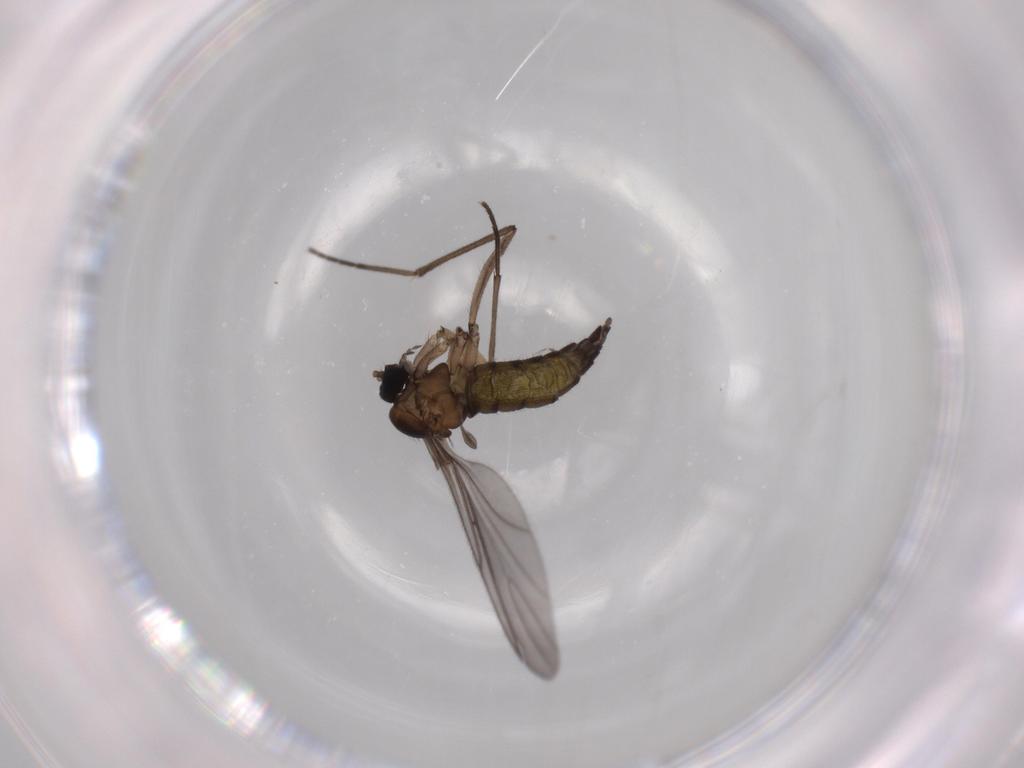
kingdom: Animalia
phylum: Arthropoda
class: Insecta
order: Diptera
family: Sciaridae
